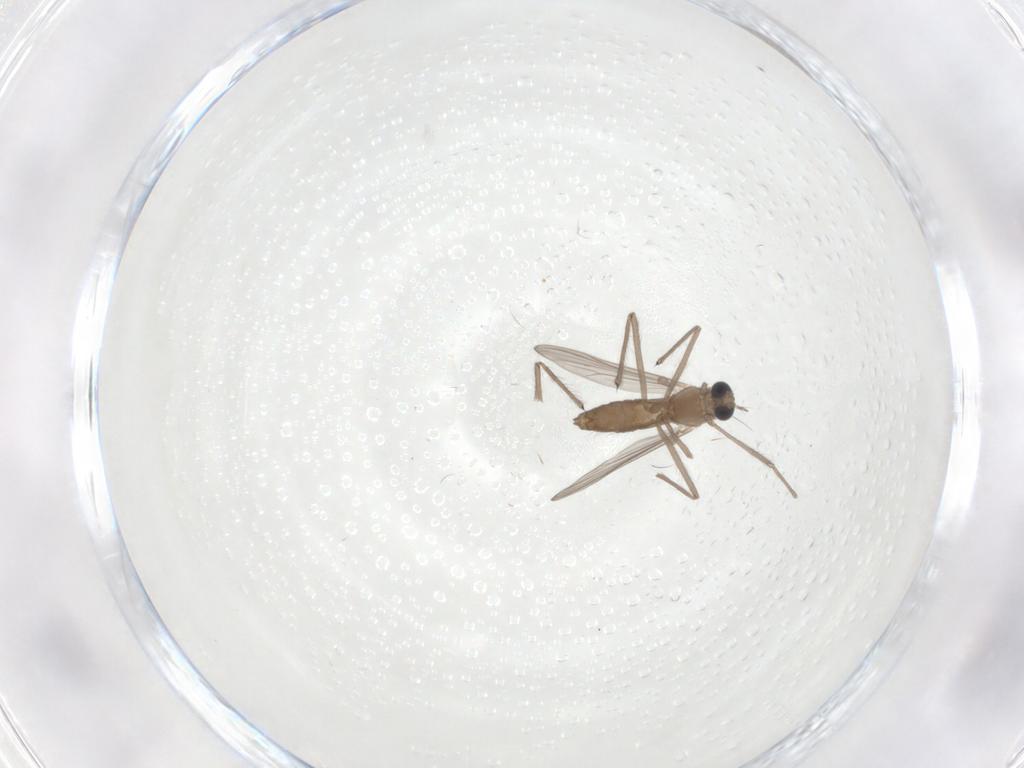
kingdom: Animalia
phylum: Arthropoda
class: Insecta
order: Diptera
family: Chironomidae
